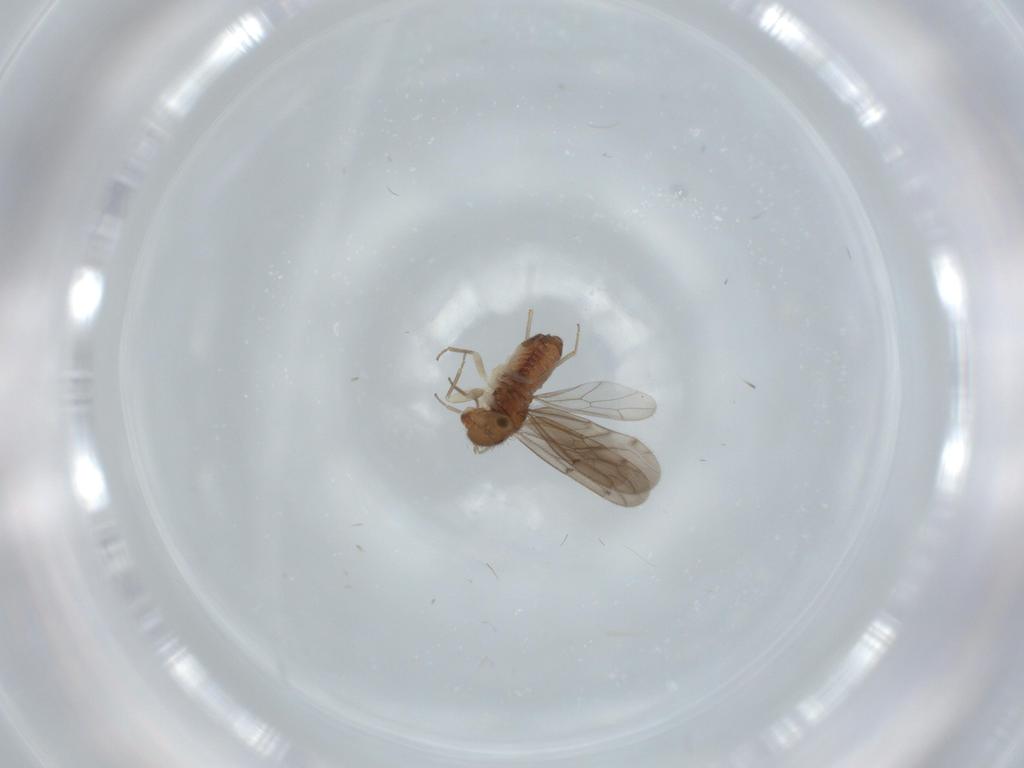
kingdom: Animalia
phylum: Arthropoda
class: Insecta
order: Psocodea
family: Ectopsocidae
